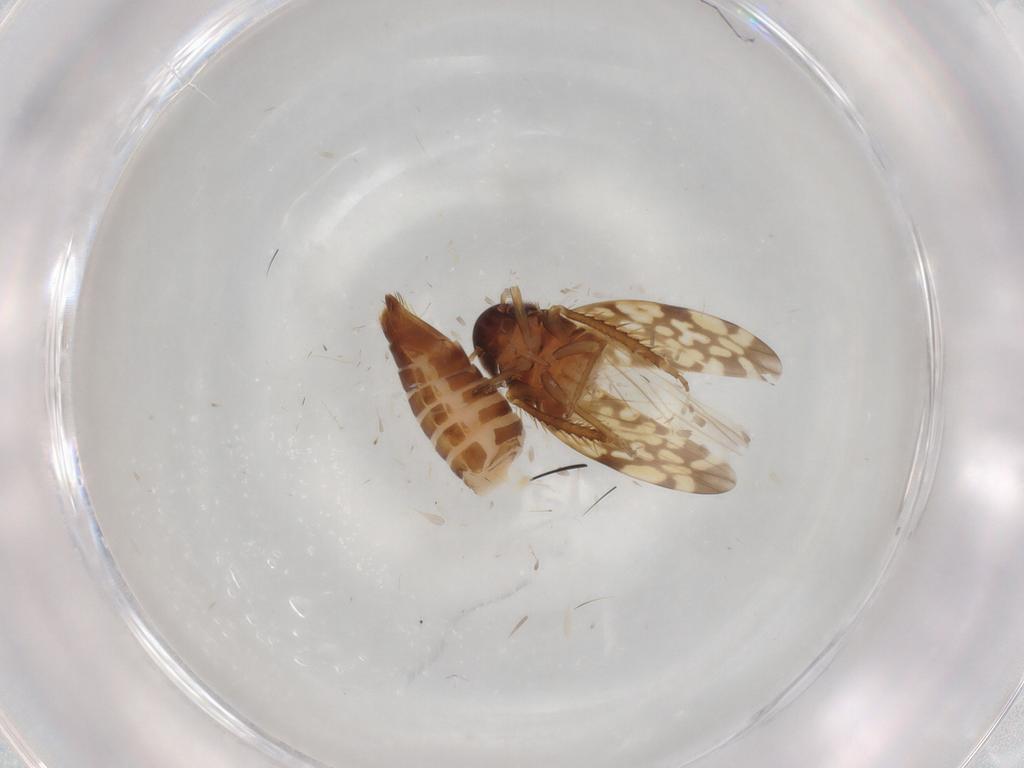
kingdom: Animalia
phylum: Arthropoda
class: Insecta
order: Hemiptera
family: Cicadellidae
